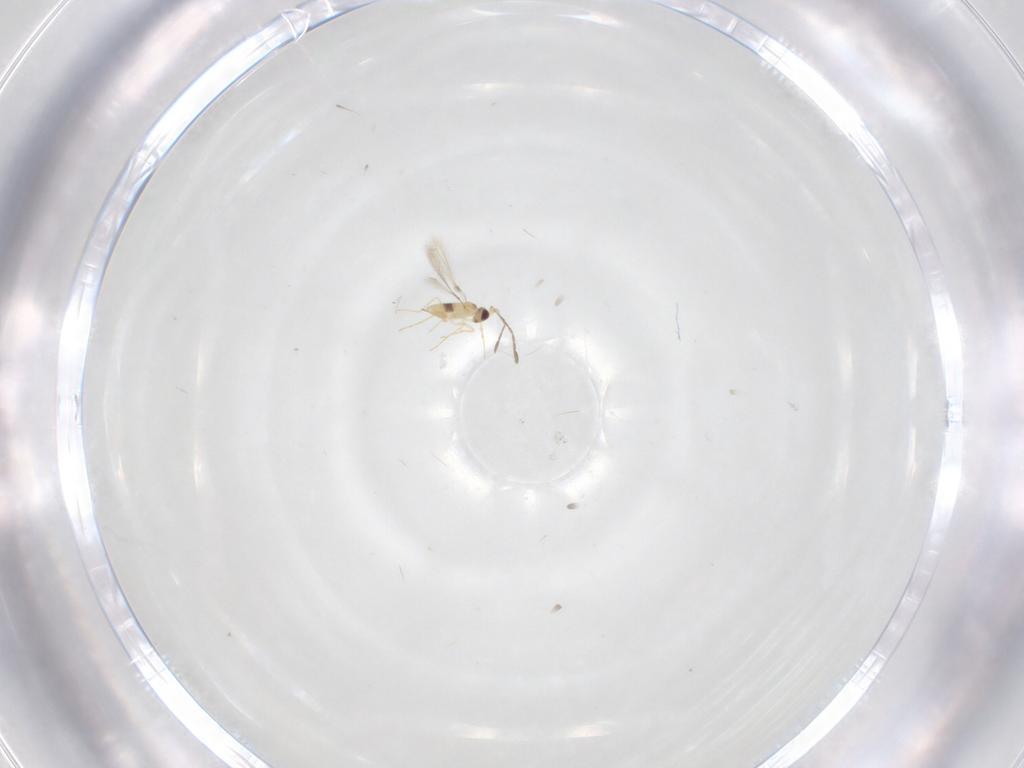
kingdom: Animalia
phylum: Arthropoda
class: Insecta
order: Hymenoptera
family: Mymaridae
